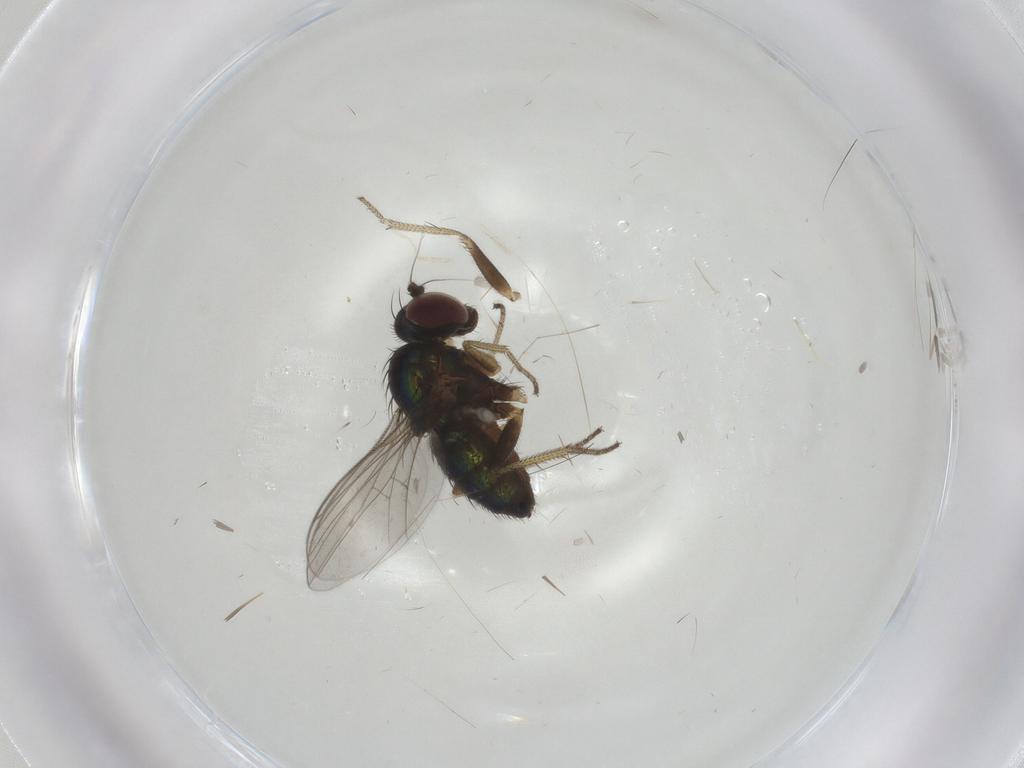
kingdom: Animalia
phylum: Arthropoda
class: Insecta
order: Diptera
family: Dolichopodidae
